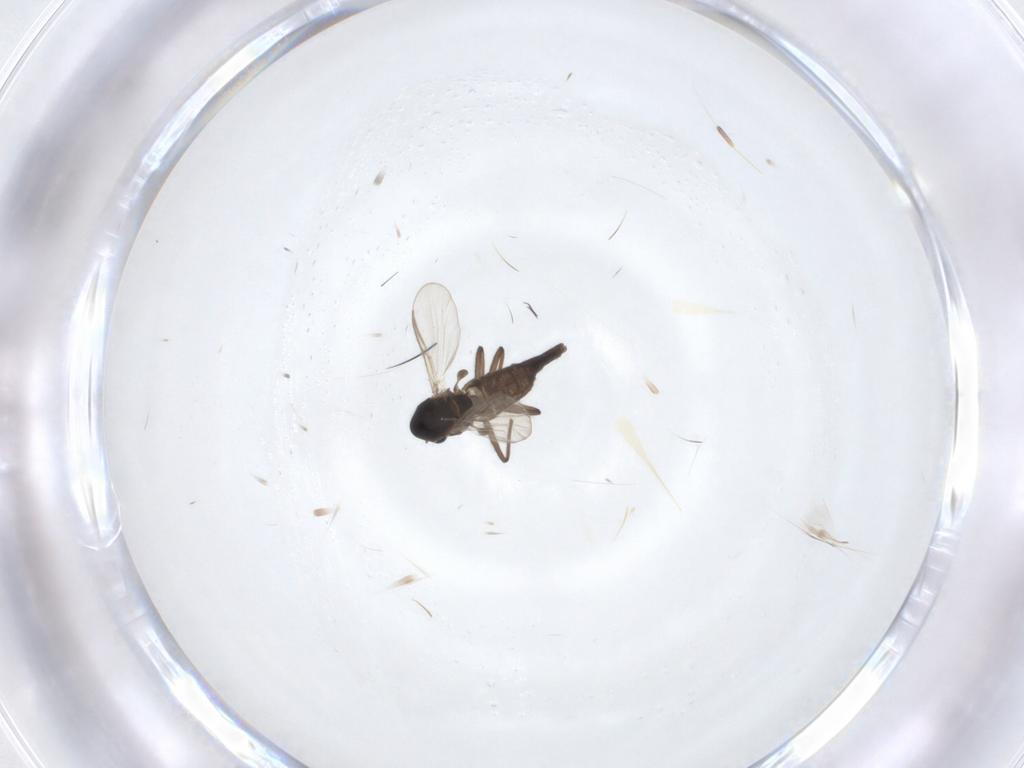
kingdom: Animalia
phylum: Arthropoda
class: Insecta
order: Diptera
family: Chironomidae
